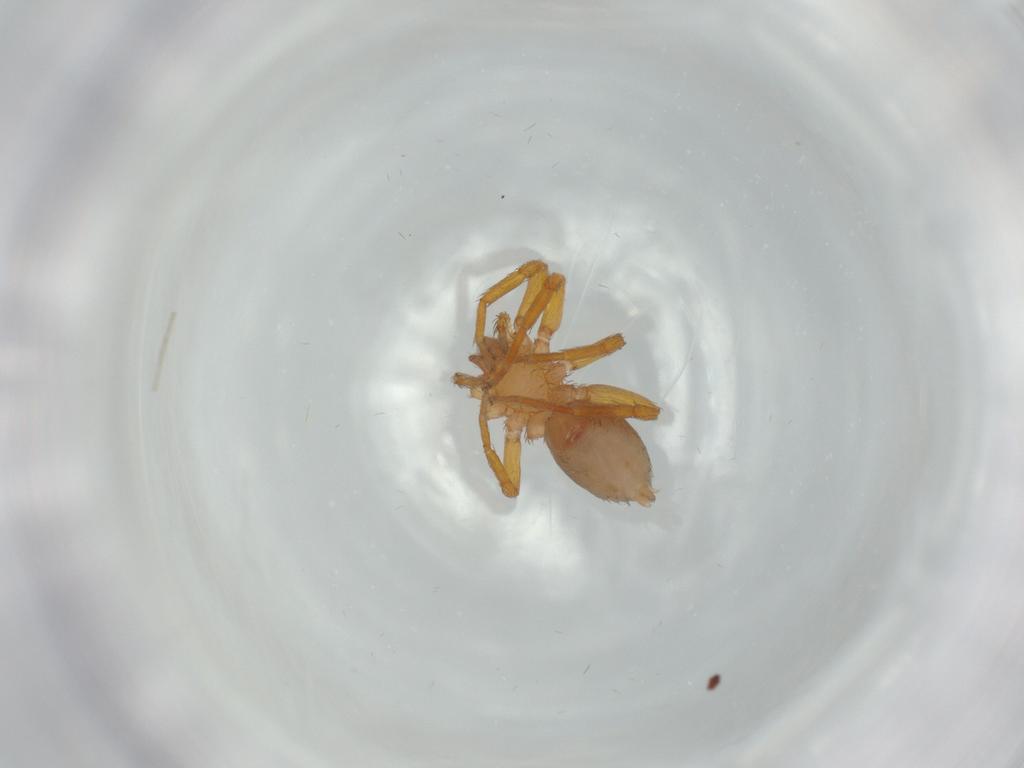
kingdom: Animalia
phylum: Arthropoda
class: Arachnida
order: Araneae
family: Oonopidae
